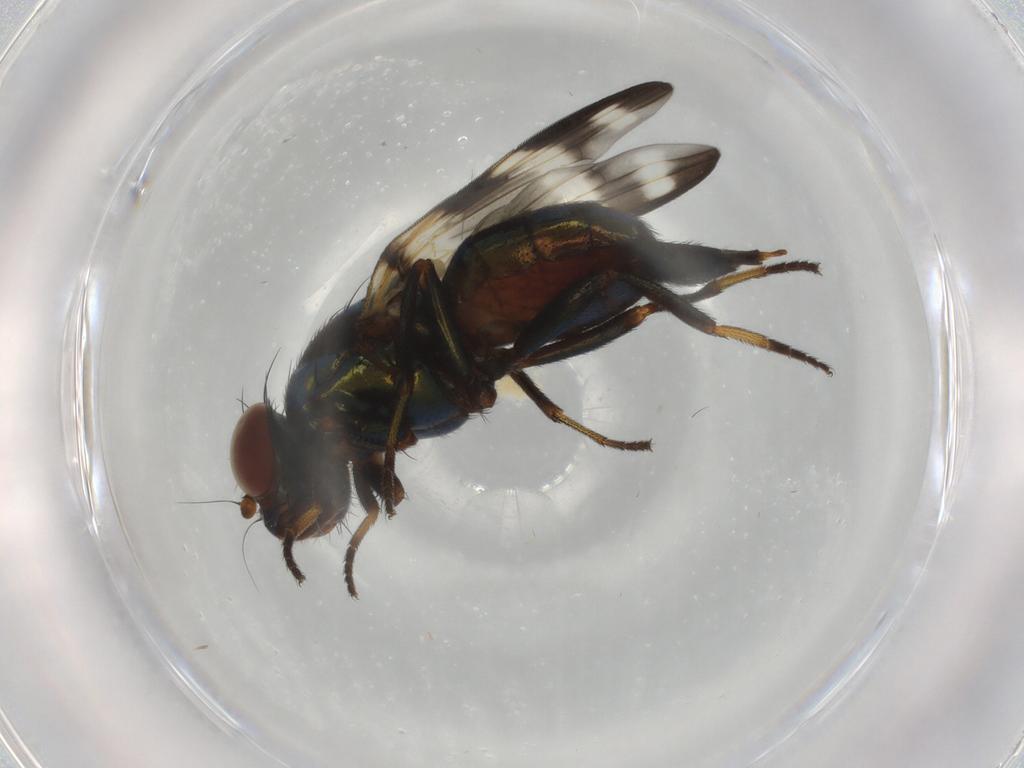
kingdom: Animalia
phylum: Arthropoda
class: Insecta
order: Diptera
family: Ulidiidae
